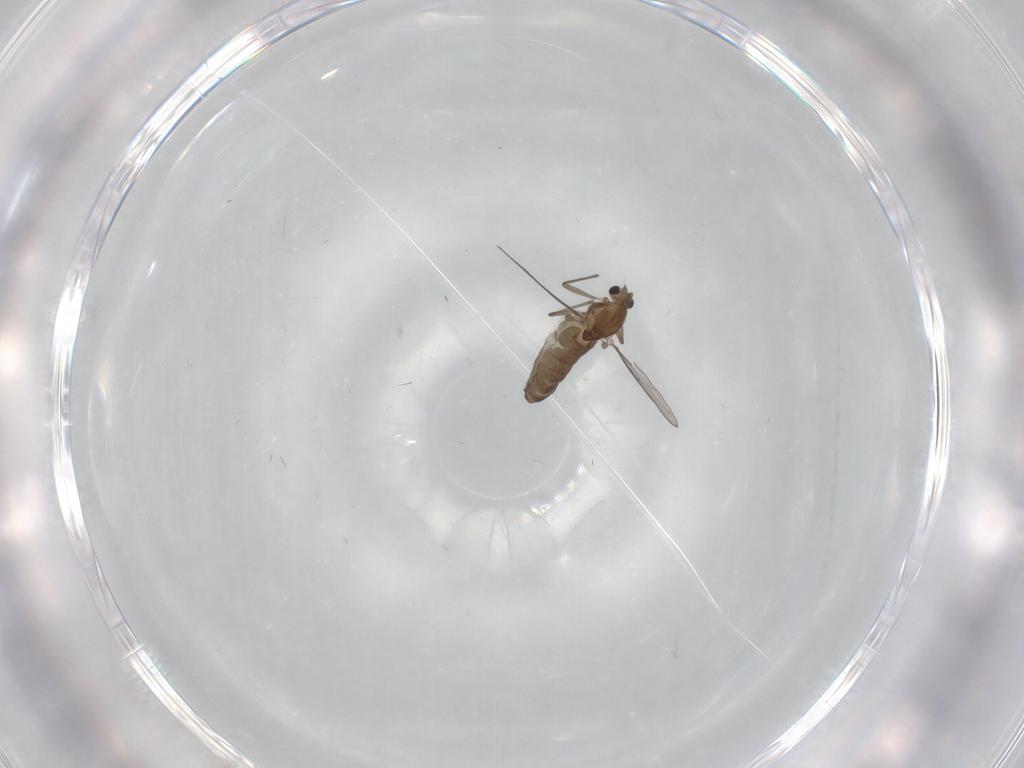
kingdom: Animalia
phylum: Arthropoda
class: Insecta
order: Diptera
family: Chironomidae
